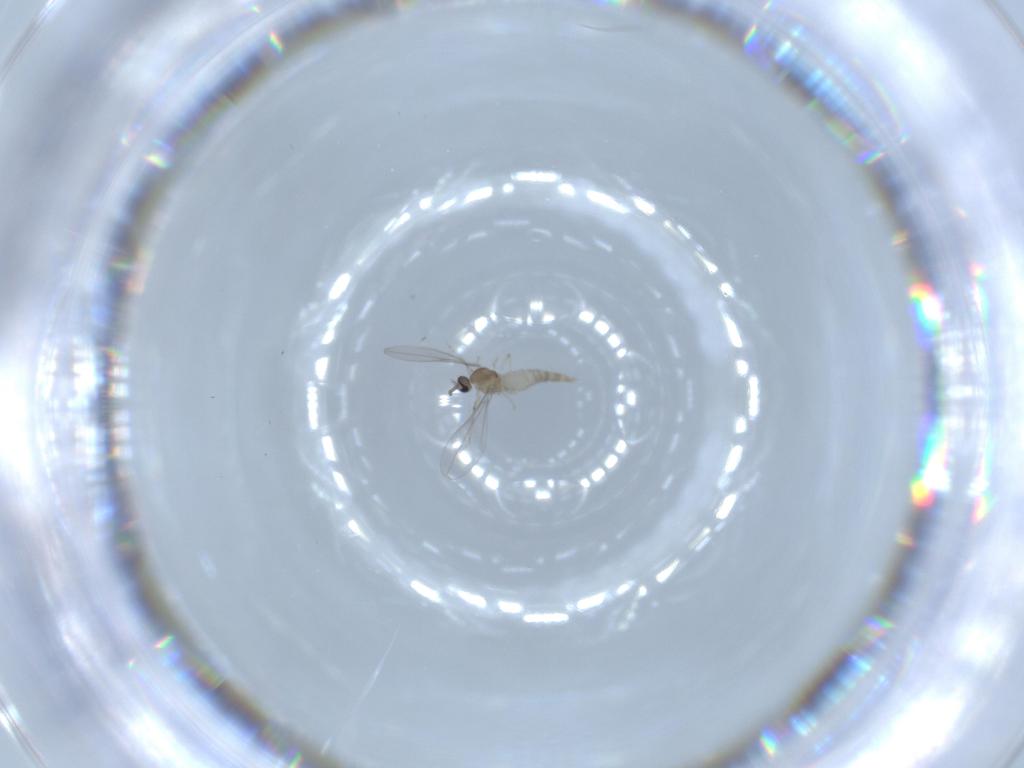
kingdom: Animalia
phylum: Arthropoda
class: Insecta
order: Diptera
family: Cecidomyiidae
